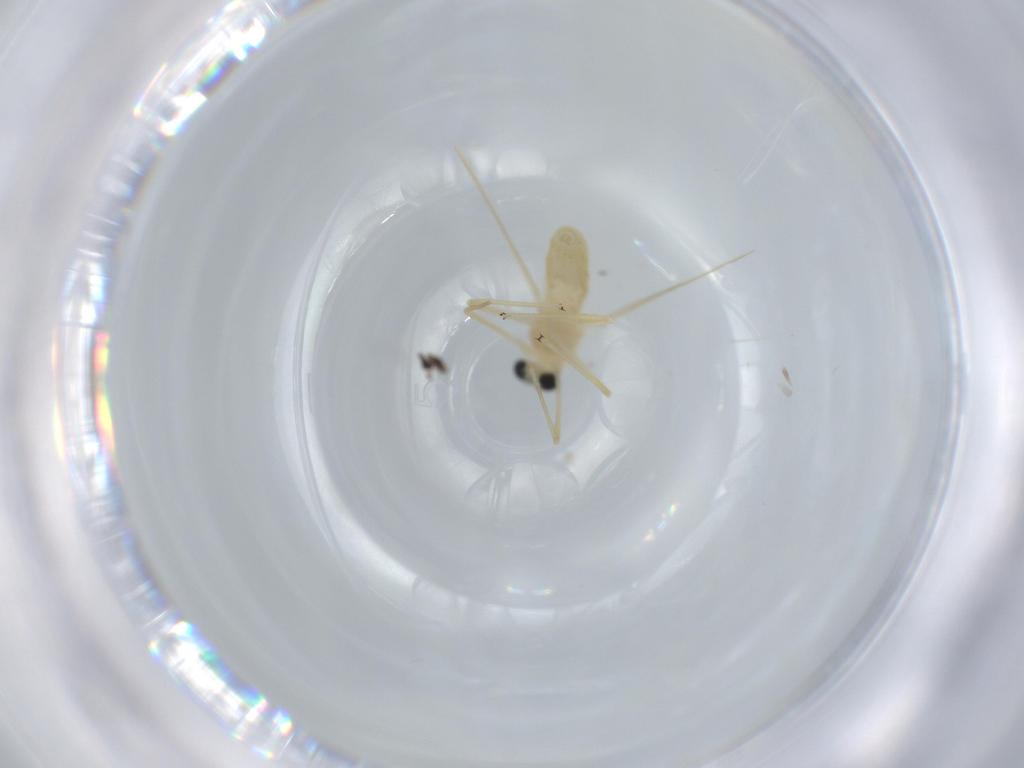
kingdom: Animalia
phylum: Arthropoda
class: Insecta
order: Diptera
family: Chironomidae
